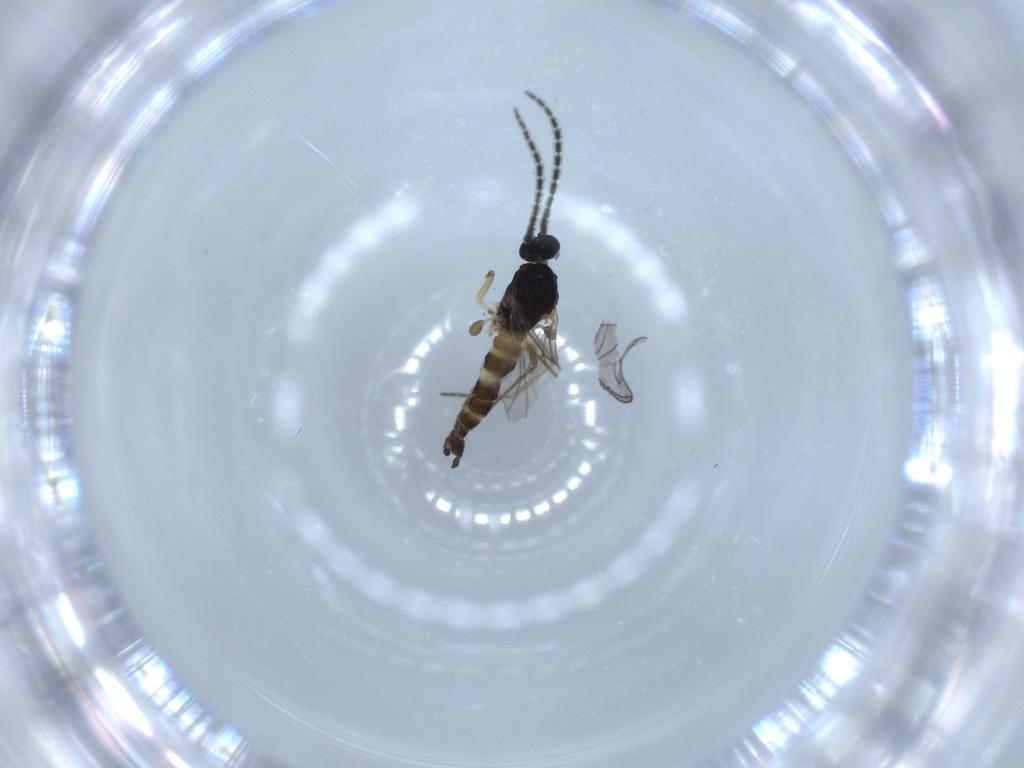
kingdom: Animalia
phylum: Arthropoda
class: Insecta
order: Diptera
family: Sciaridae
